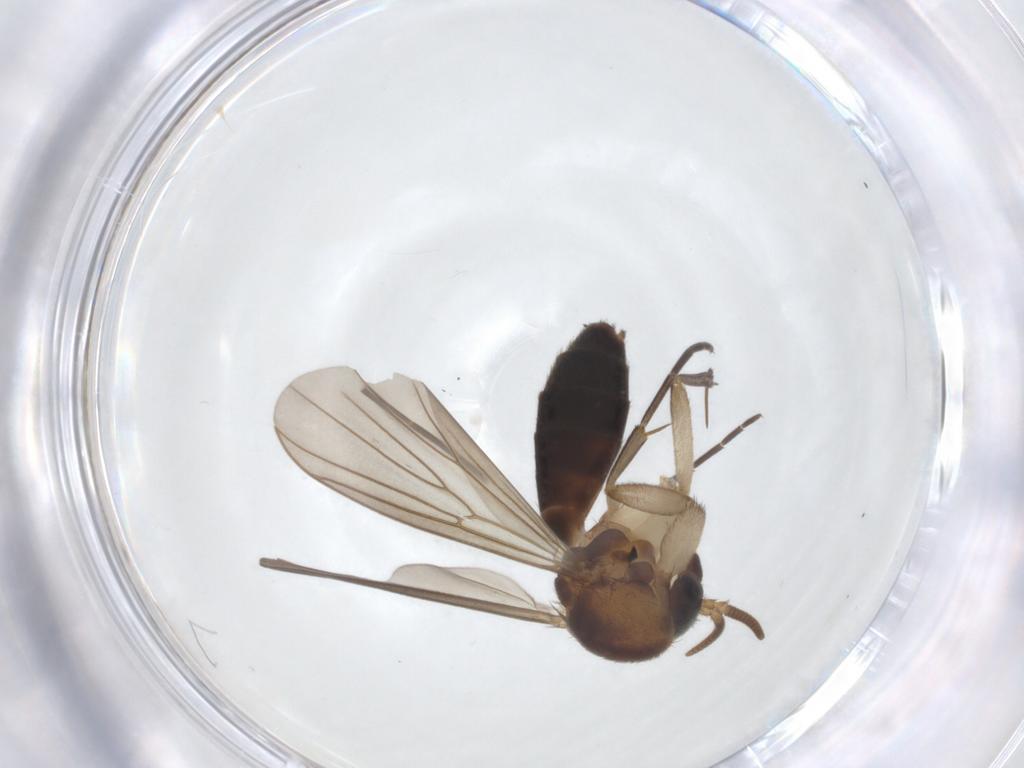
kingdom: Animalia
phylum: Arthropoda
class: Insecta
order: Diptera
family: Mycetophilidae
